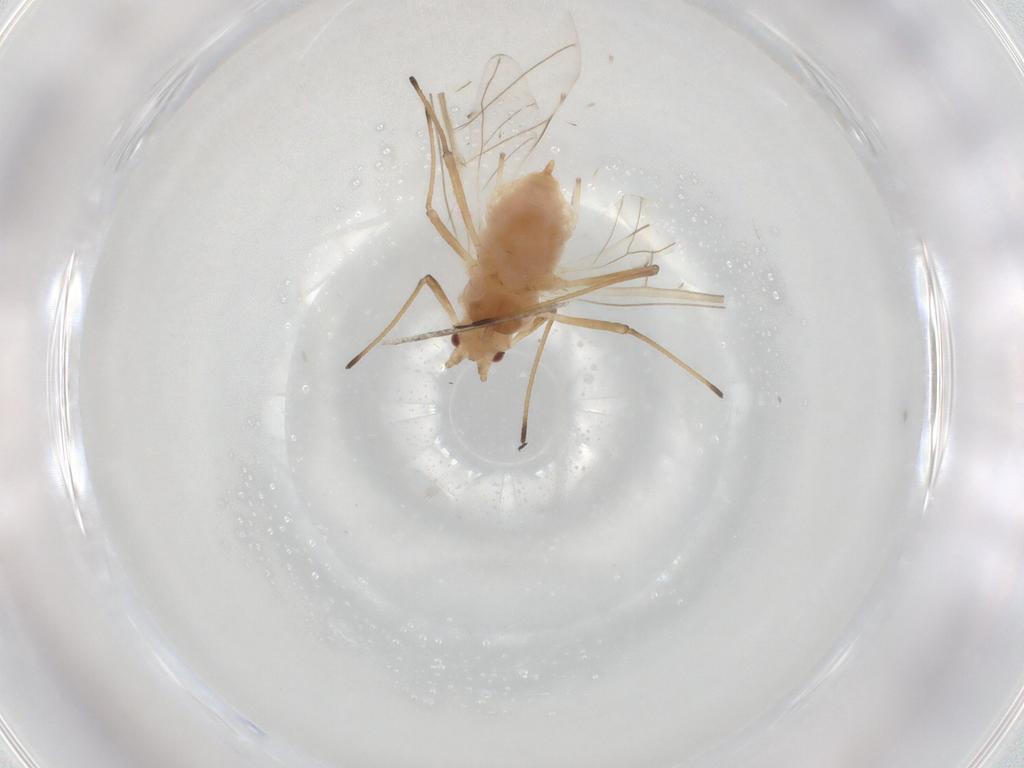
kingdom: Animalia
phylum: Arthropoda
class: Insecta
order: Hemiptera
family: Aphididae
